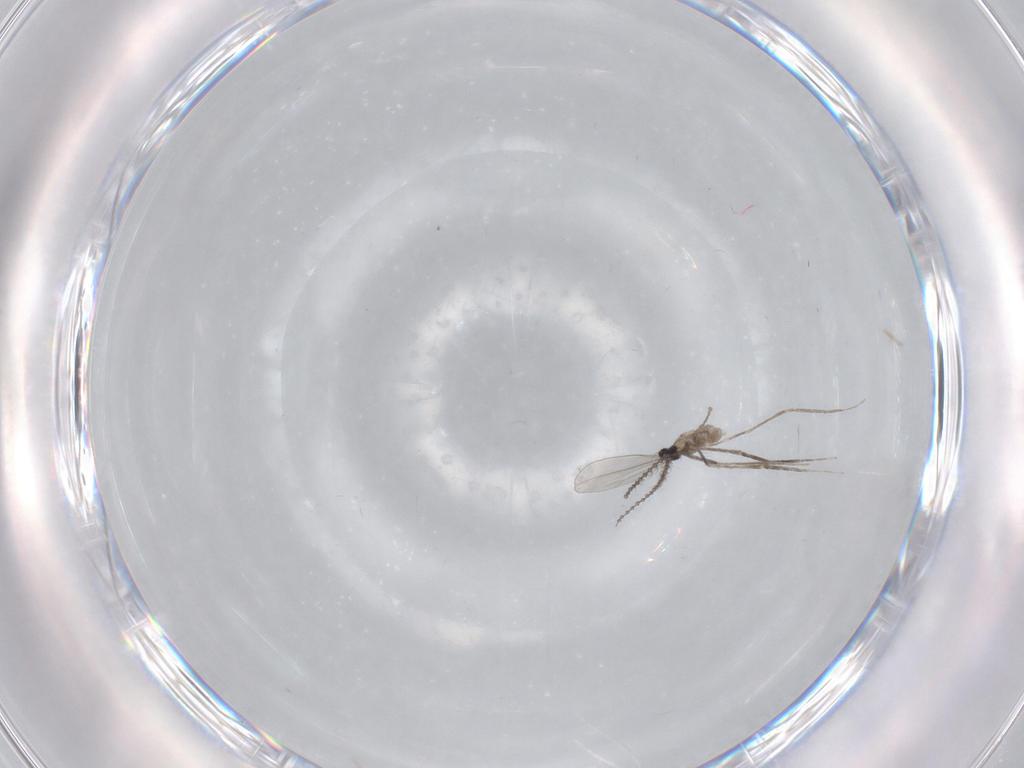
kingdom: Animalia
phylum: Arthropoda
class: Insecta
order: Diptera
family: Cecidomyiidae
